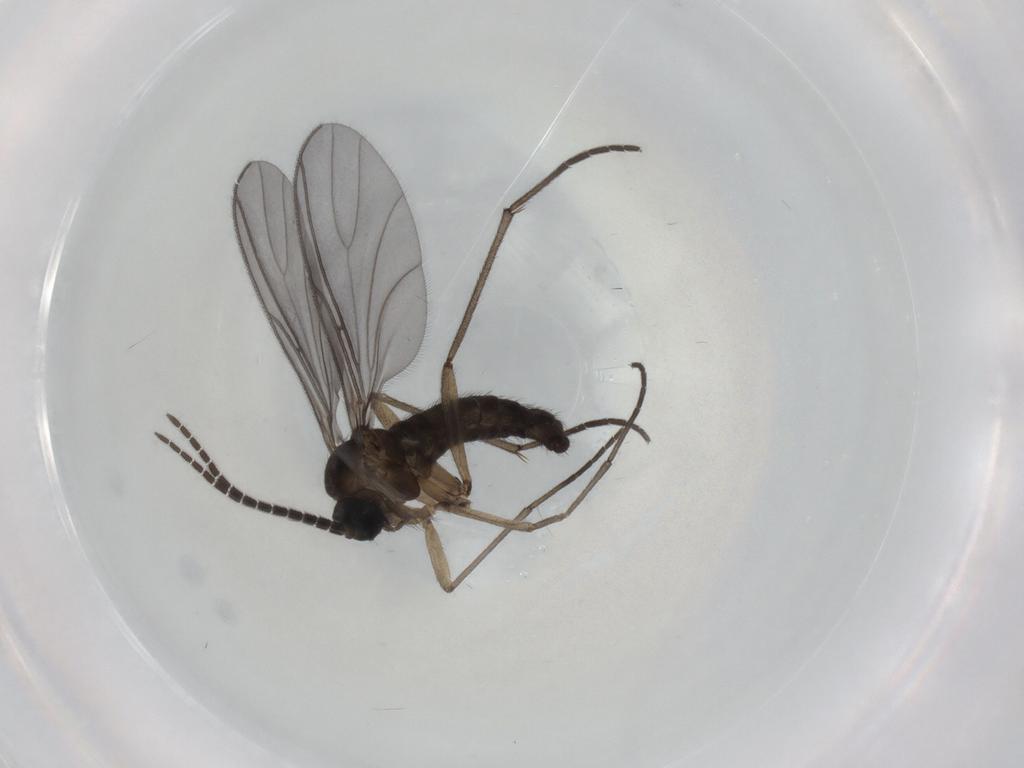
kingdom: Animalia
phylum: Arthropoda
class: Insecta
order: Diptera
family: Sciaridae
